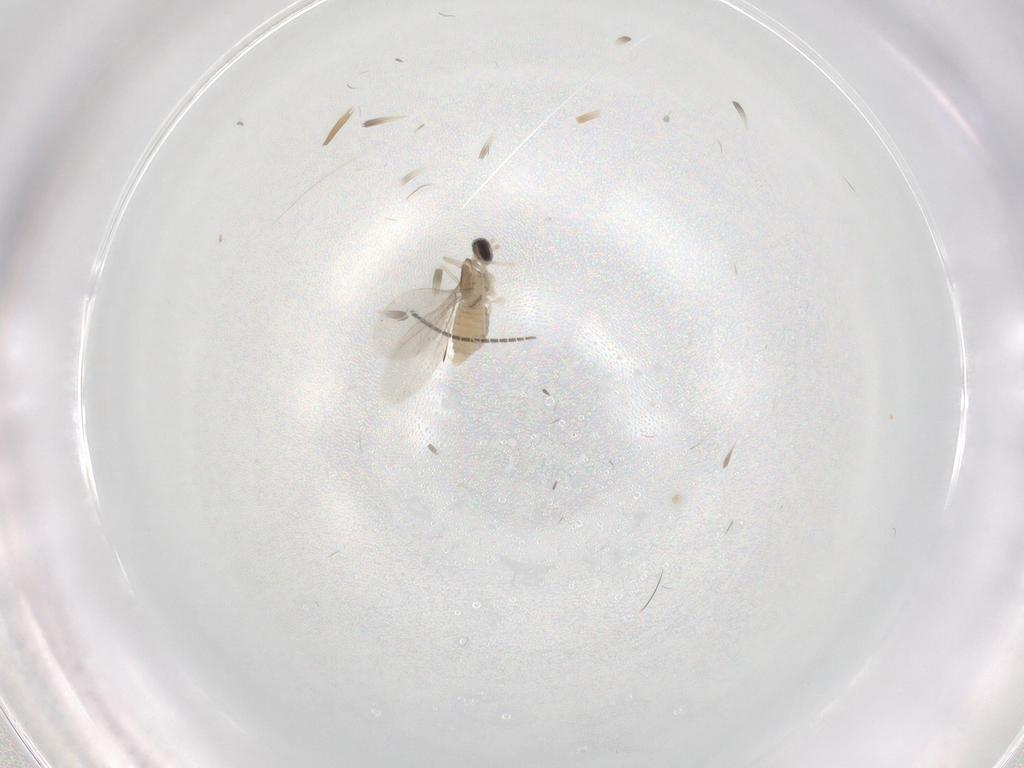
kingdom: Animalia
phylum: Arthropoda
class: Insecta
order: Diptera
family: Cecidomyiidae
